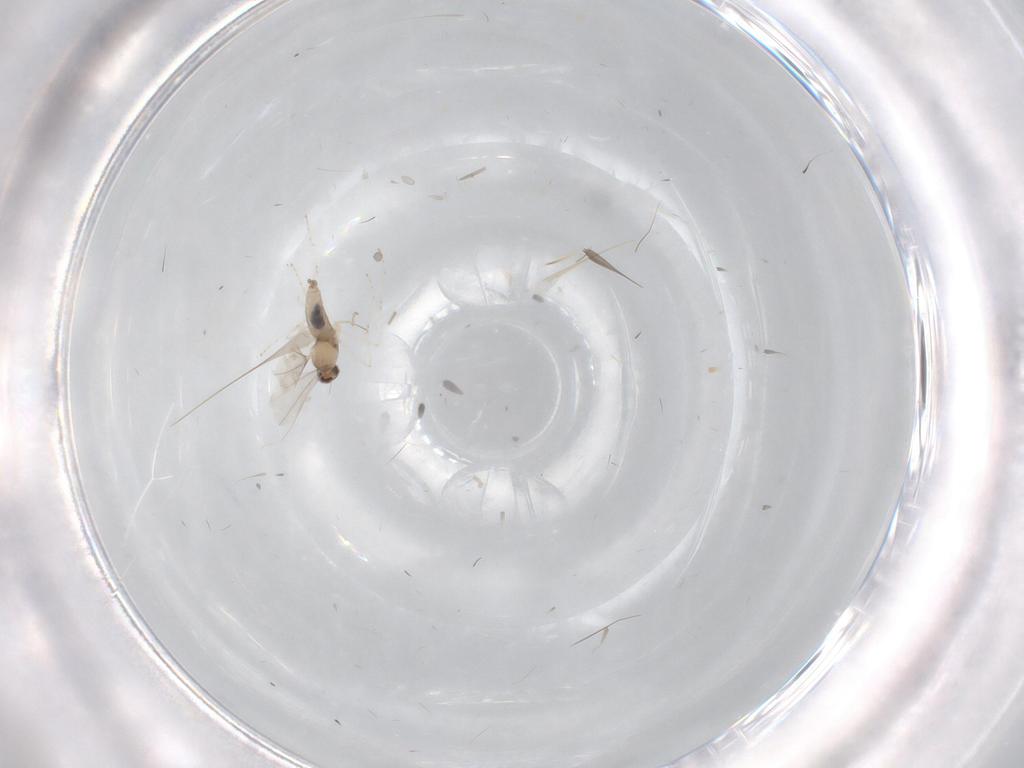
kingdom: Animalia
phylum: Arthropoda
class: Insecta
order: Diptera
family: Cecidomyiidae
